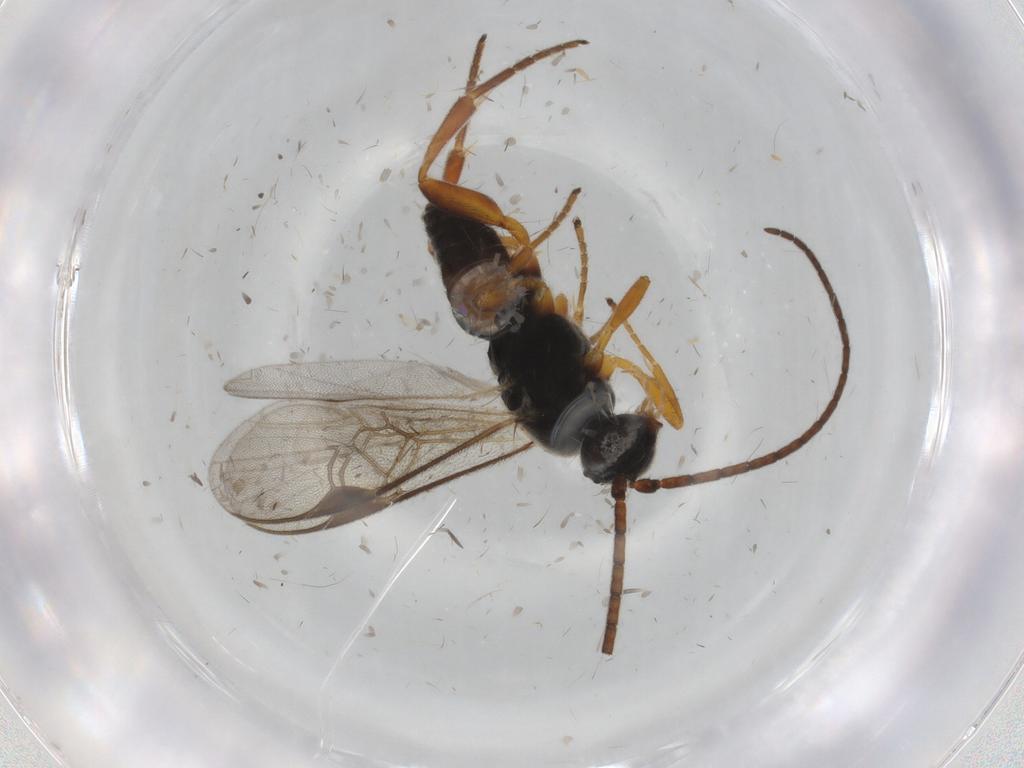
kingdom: Animalia
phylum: Arthropoda
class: Insecta
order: Hymenoptera
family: Braconidae
